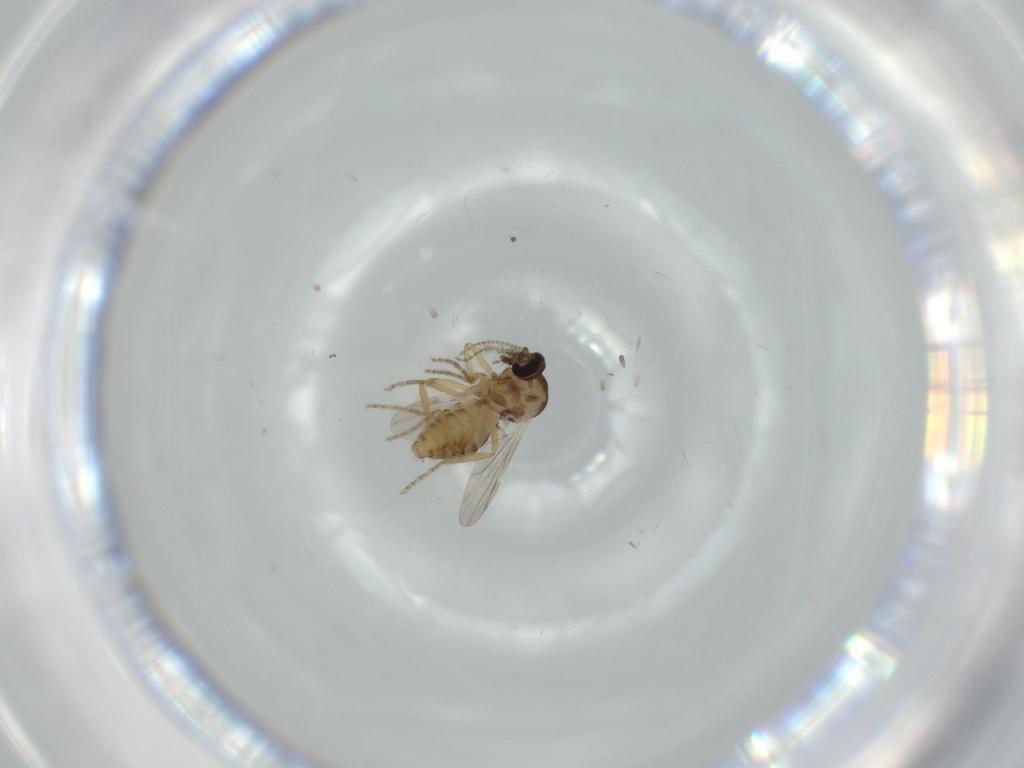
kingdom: Animalia
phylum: Arthropoda
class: Insecta
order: Diptera
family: Ceratopogonidae
